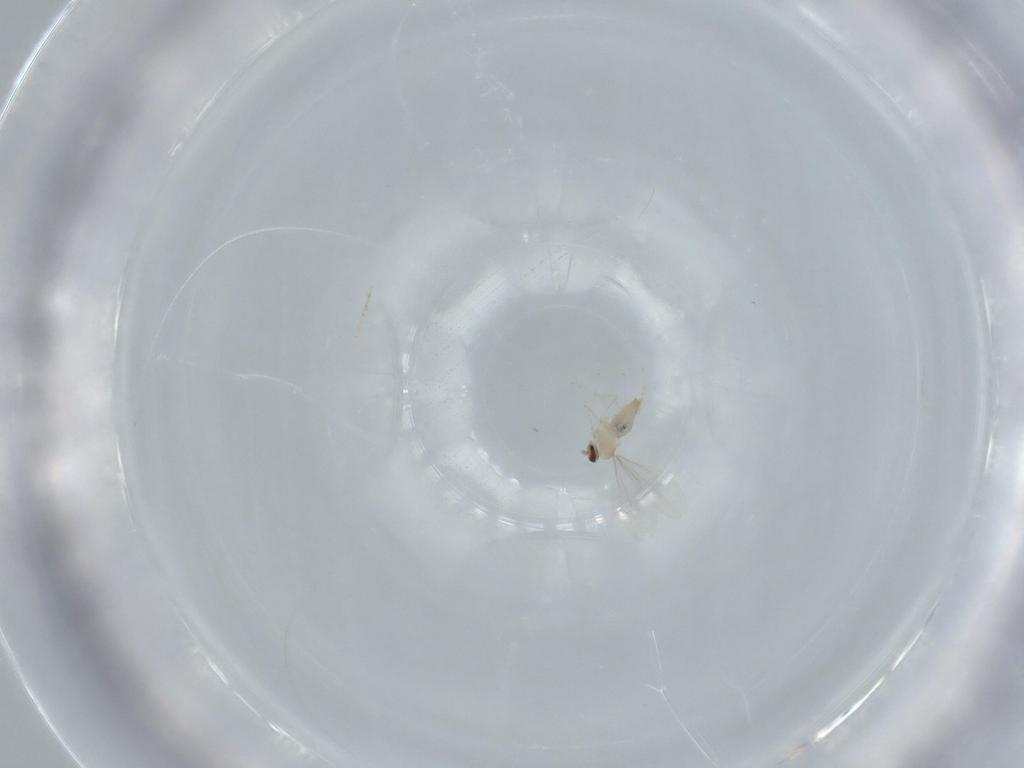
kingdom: Animalia
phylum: Arthropoda
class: Insecta
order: Diptera
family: Cecidomyiidae
